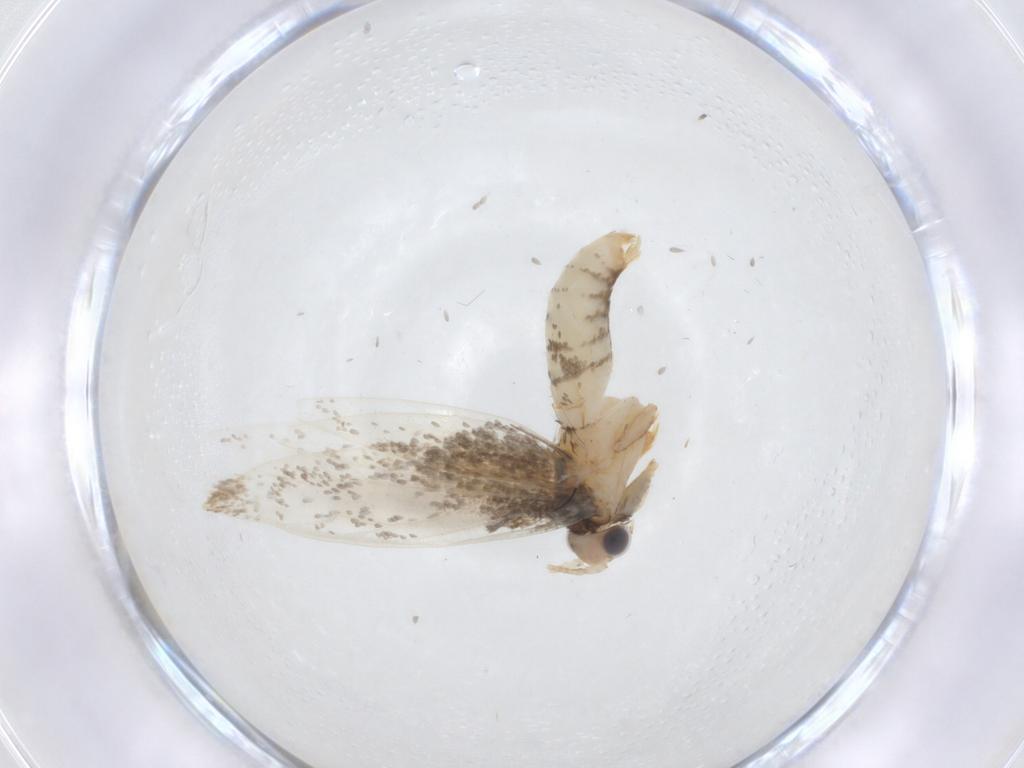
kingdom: Animalia
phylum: Arthropoda
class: Insecta
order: Lepidoptera
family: Tineidae
